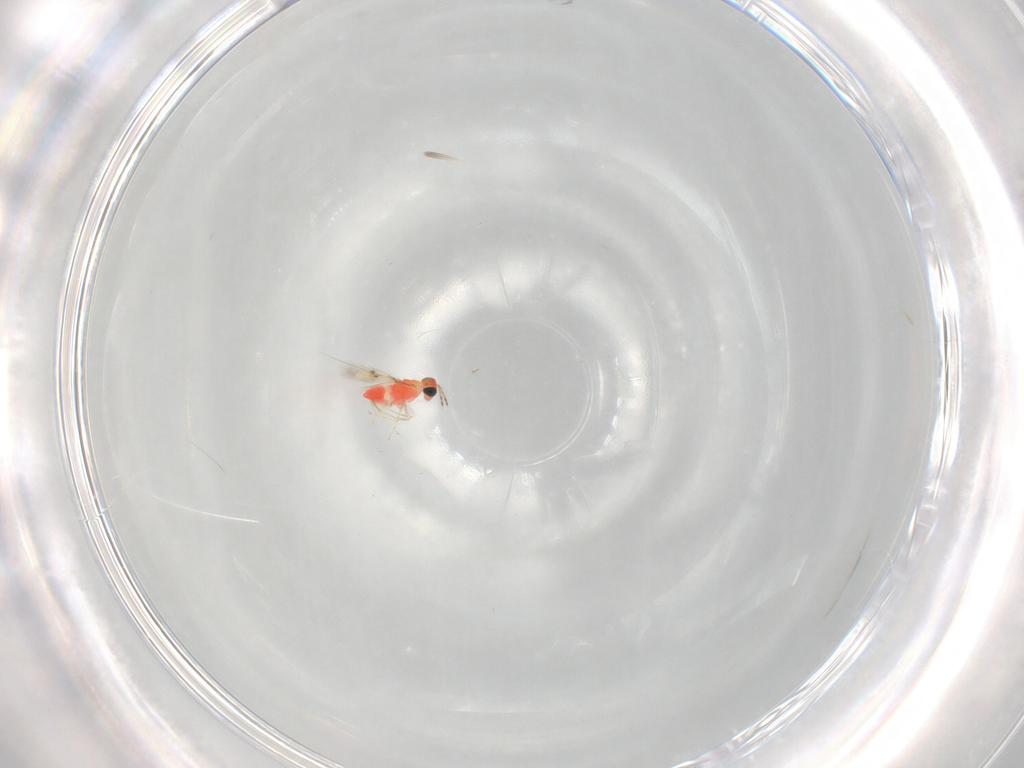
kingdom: Animalia
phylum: Arthropoda
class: Insecta
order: Hymenoptera
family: Trichogrammatidae
